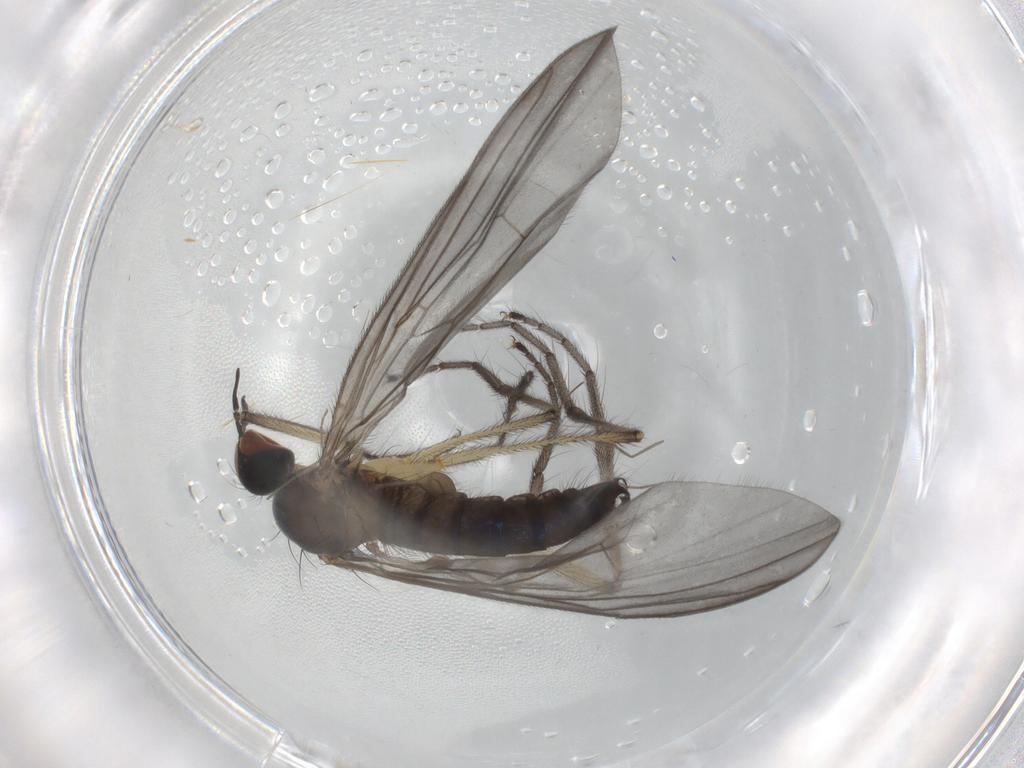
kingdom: Animalia
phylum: Arthropoda
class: Insecta
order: Diptera
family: Empididae
